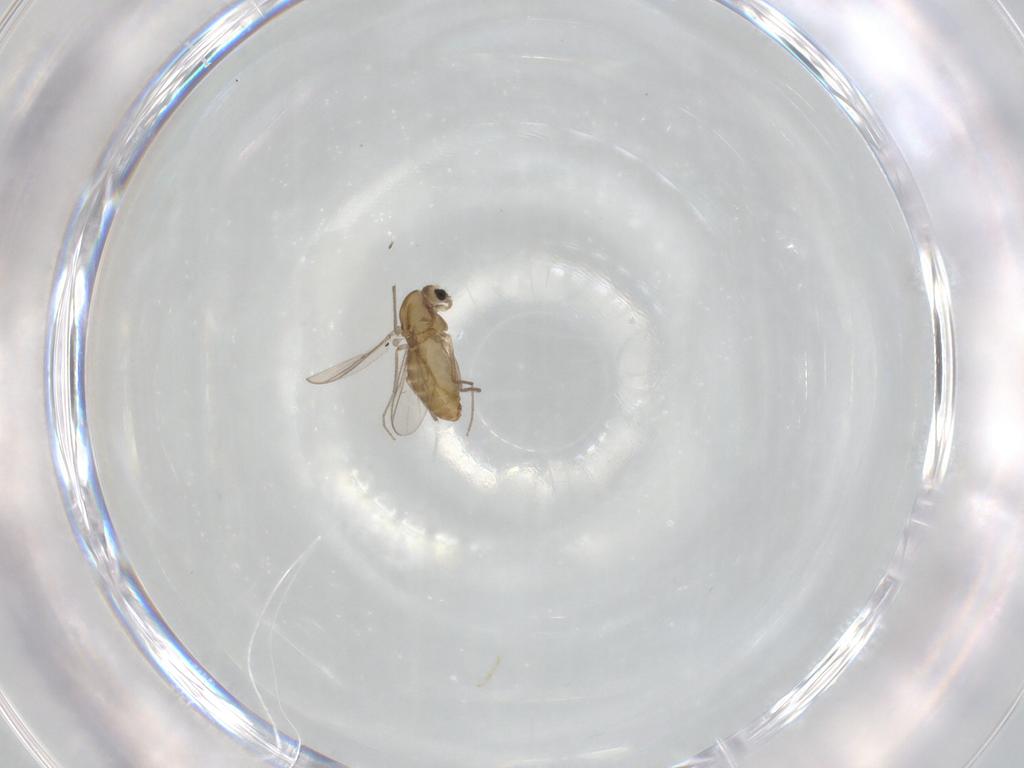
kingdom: Animalia
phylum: Arthropoda
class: Insecta
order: Diptera
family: Chironomidae
